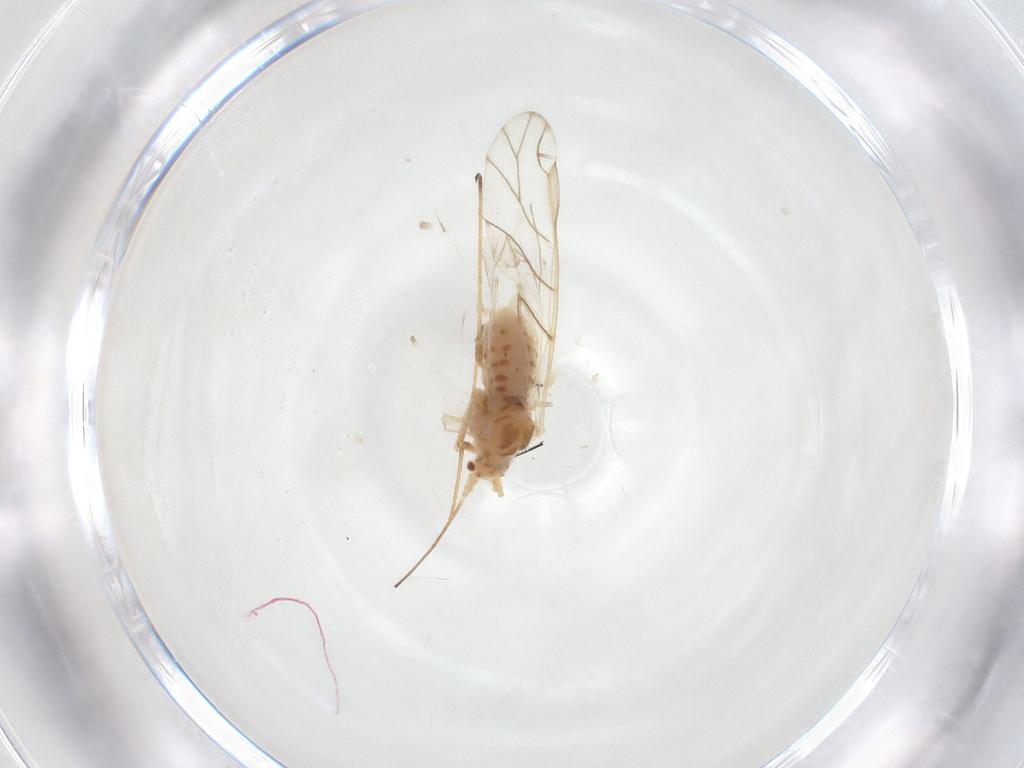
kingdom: Animalia
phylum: Arthropoda
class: Insecta
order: Hemiptera
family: Aphididae
